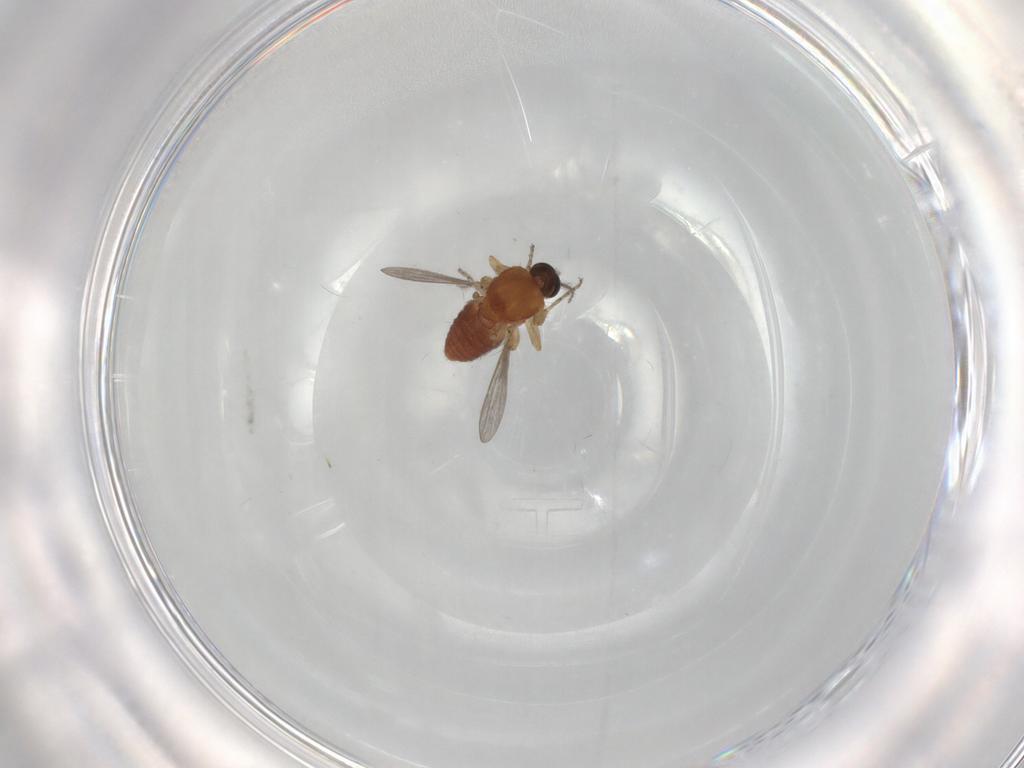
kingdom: Animalia
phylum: Arthropoda
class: Insecta
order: Diptera
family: Ceratopogonidae
